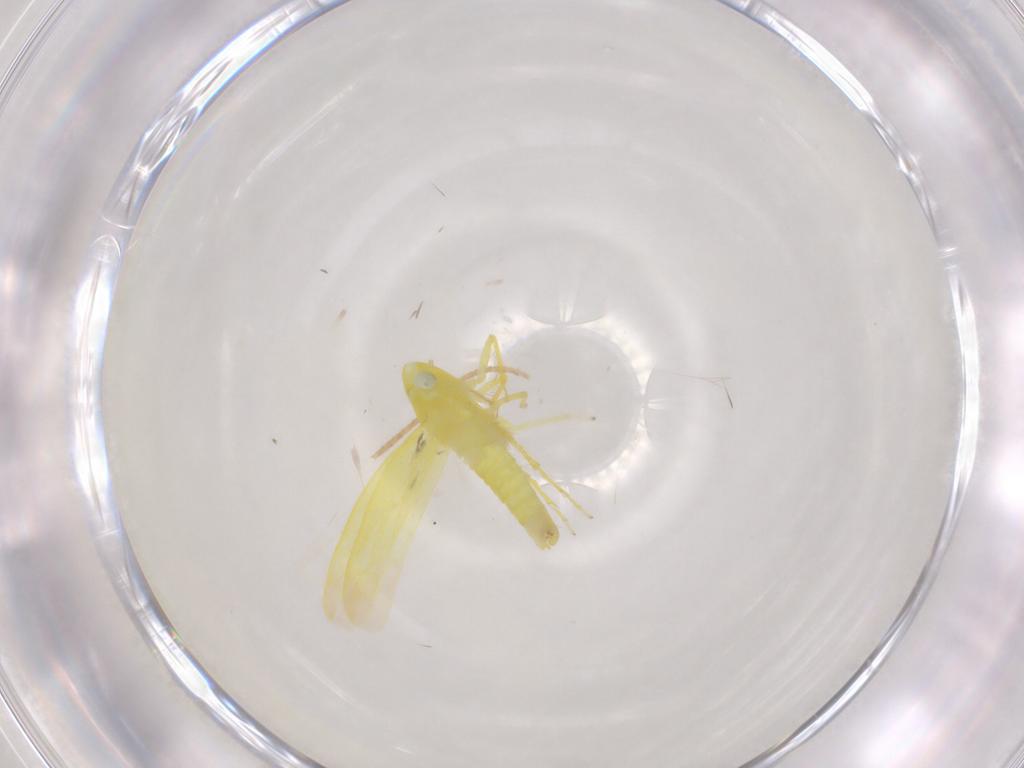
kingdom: Animalia
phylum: Arthropoda
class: Insecta
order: Hemiptera
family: Cicadellidae
